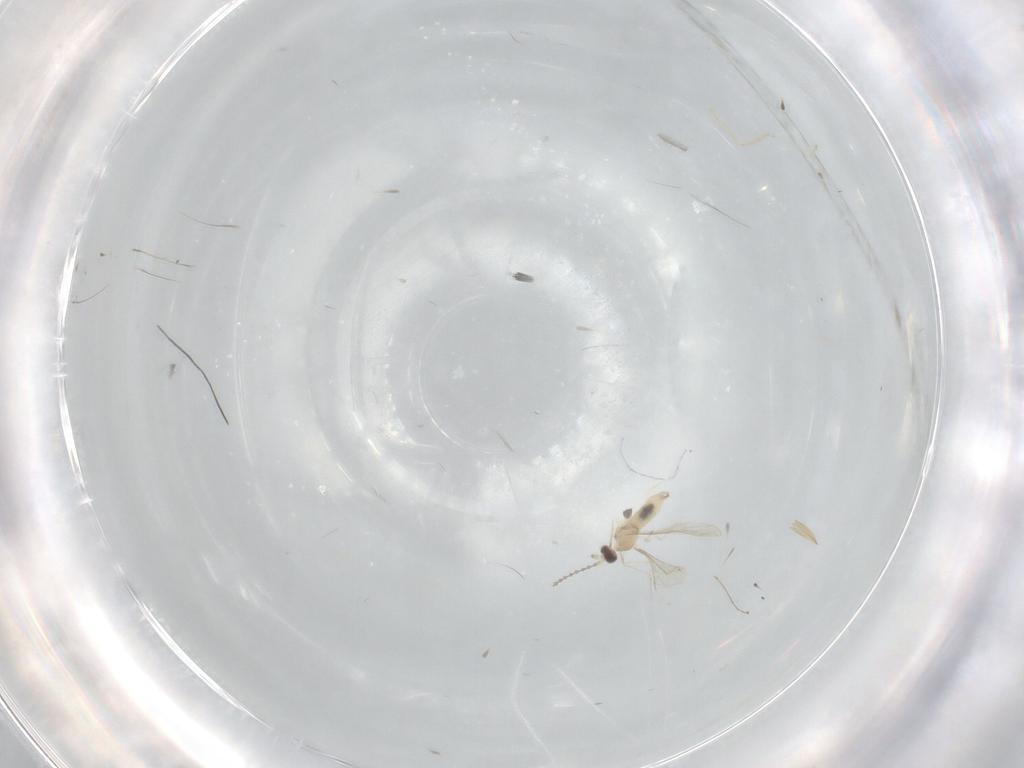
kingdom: Animalia
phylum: Arthropoda
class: Insecta
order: Diptera
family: Cecidomyiidae
